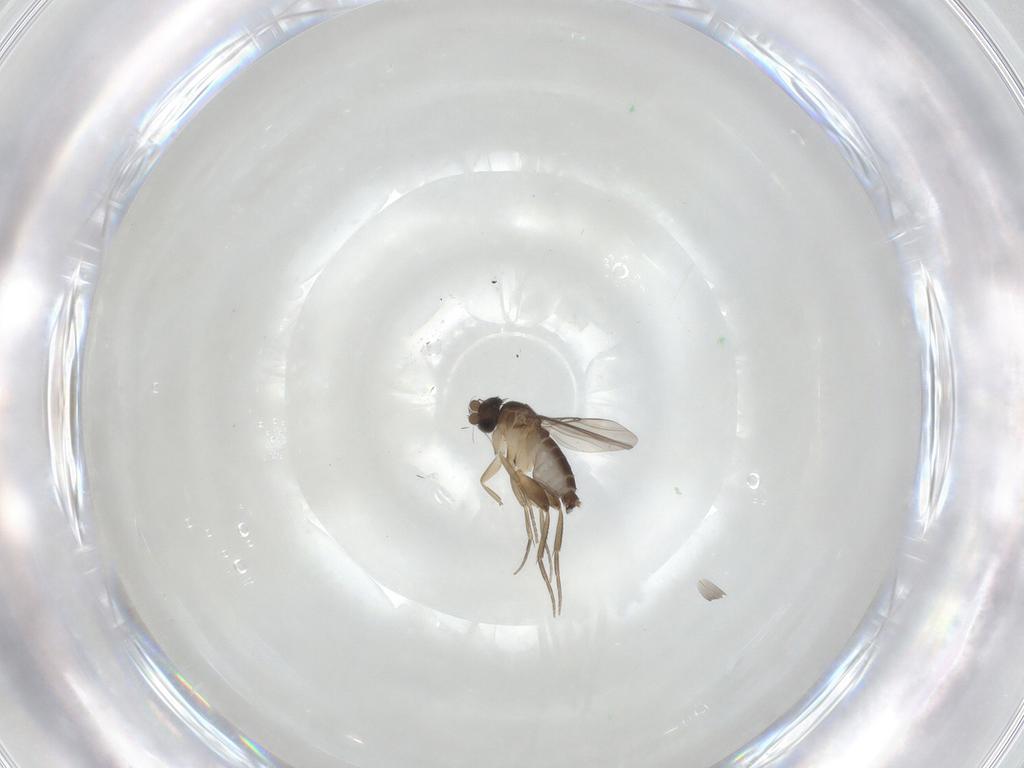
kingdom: Animalia
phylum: Arthropoda
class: Insecta
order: Diptera
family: Phoridae
